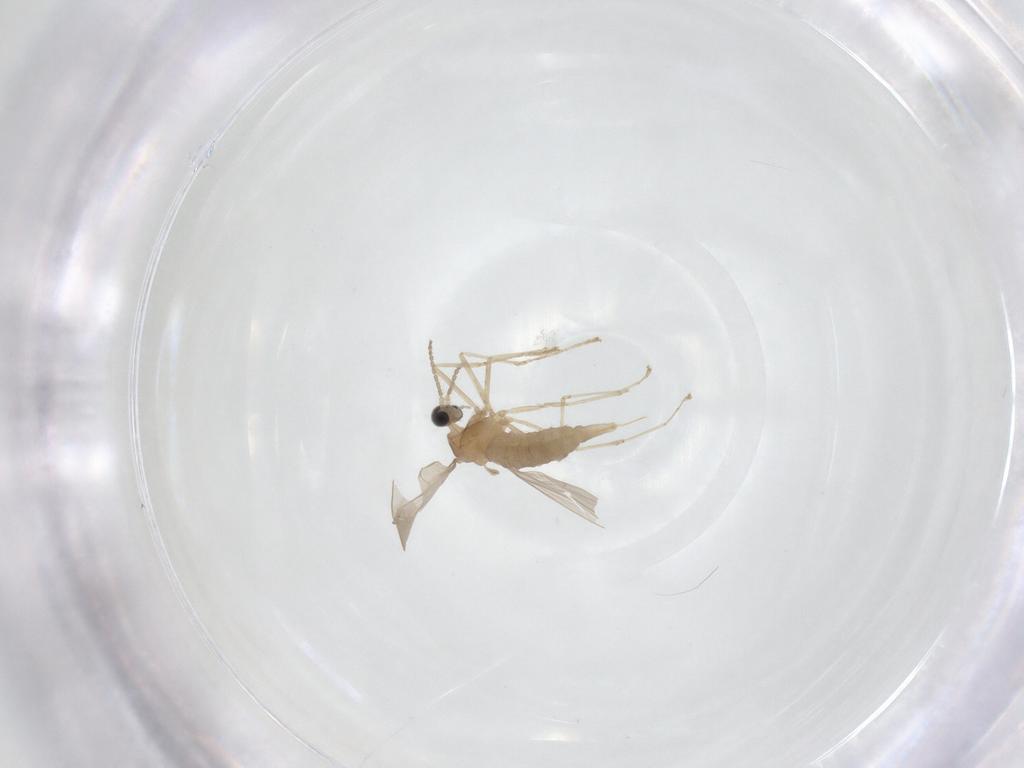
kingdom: Animalia
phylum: Arthropoda
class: Insecta
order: Diptera
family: Cecidomyiidae
